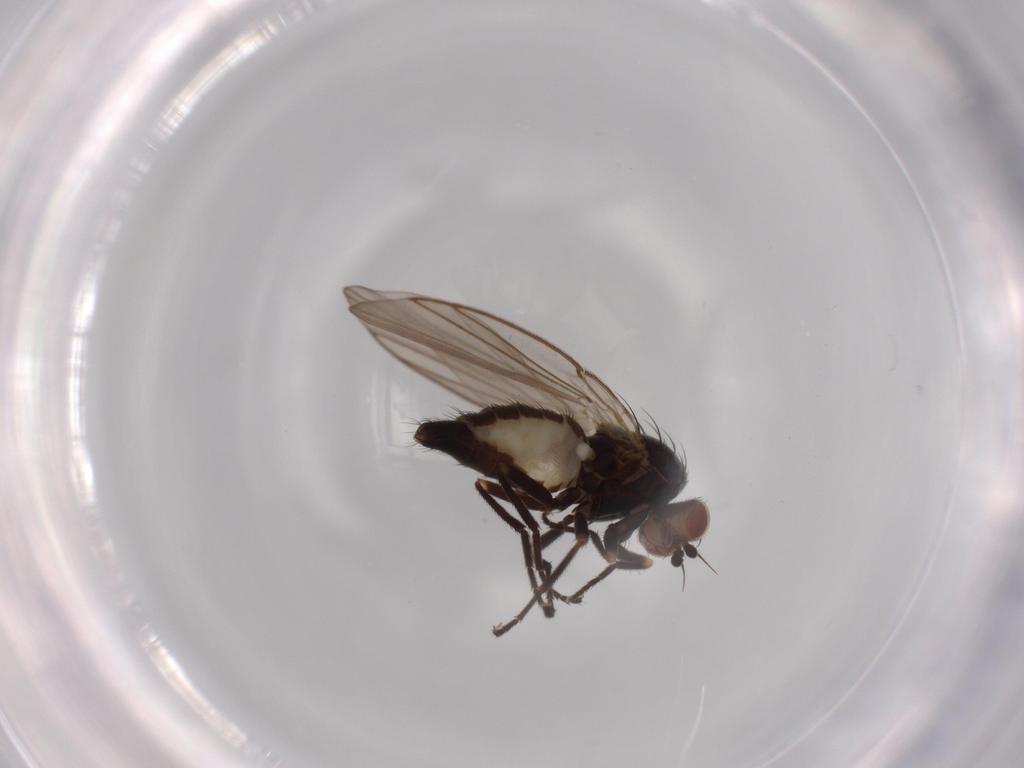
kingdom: Animalia
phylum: Arthropoda
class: Insecta
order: Diptera
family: Agromyzidae
